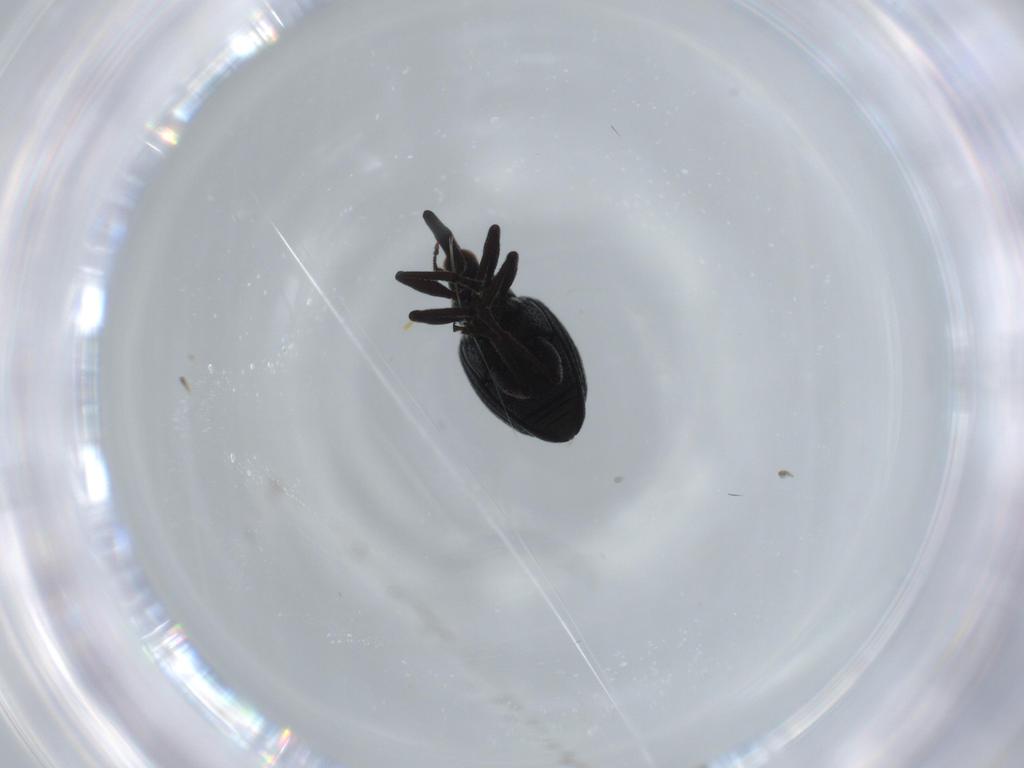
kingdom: Animalia
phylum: Arthropoda
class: Insecta
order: Coleoptera
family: Brentidae
